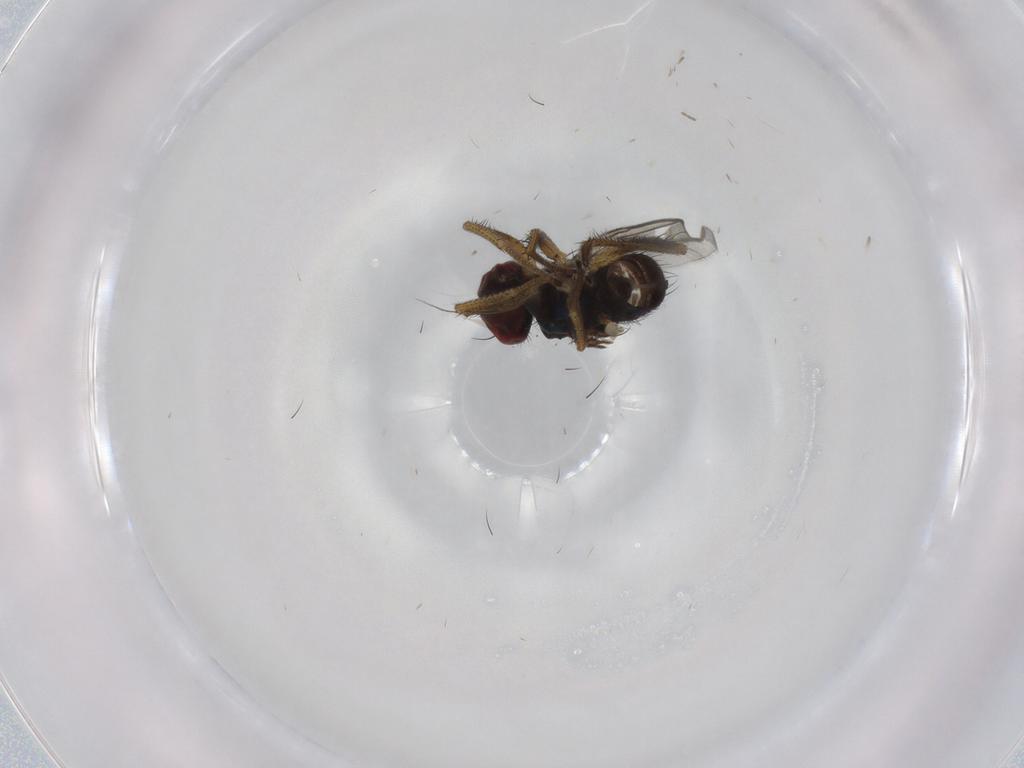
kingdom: Animalia
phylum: Arthropoda
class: Insecta
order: Diptera
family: Dolichopodidae
